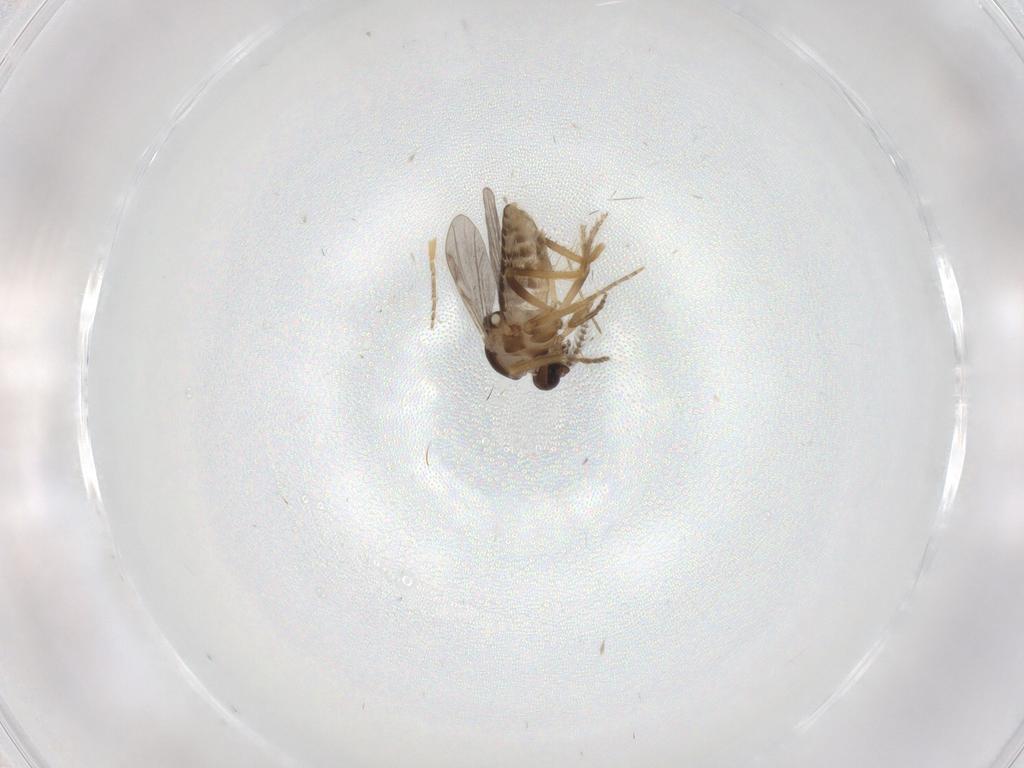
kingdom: Animalia
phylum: Arthropoda
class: Insecta
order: Diptera
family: Ceratopogonidae
